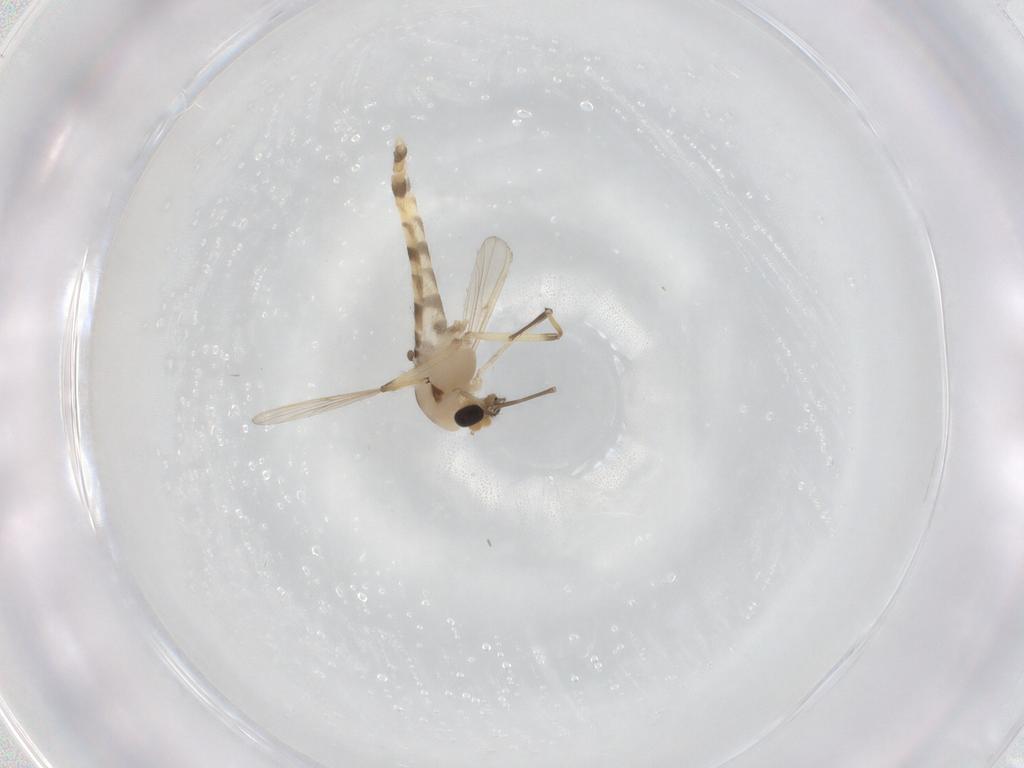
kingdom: Animalia
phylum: Arthropoda
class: Insecta
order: Diptera
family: Chironomidae
